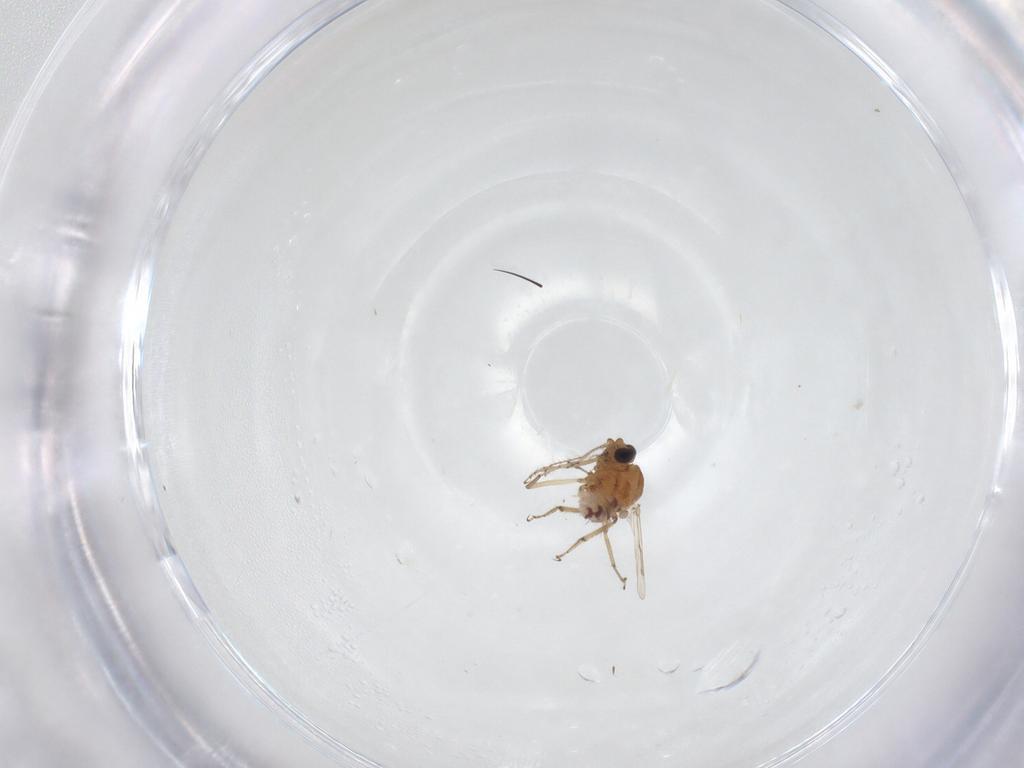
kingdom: Animalia
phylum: Arthropoda
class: Insecta
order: Diptera
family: Ceratopogonidae
